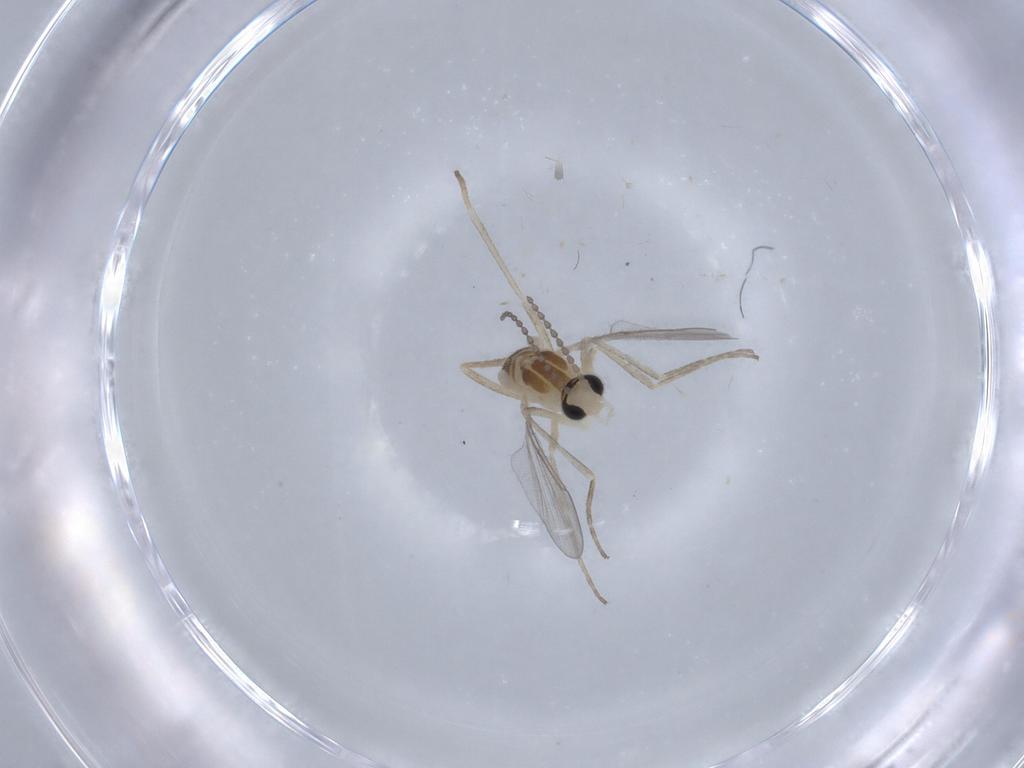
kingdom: Animalia
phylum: Arthropoda
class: Insecta
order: Diptera
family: Cecidomyiidae
